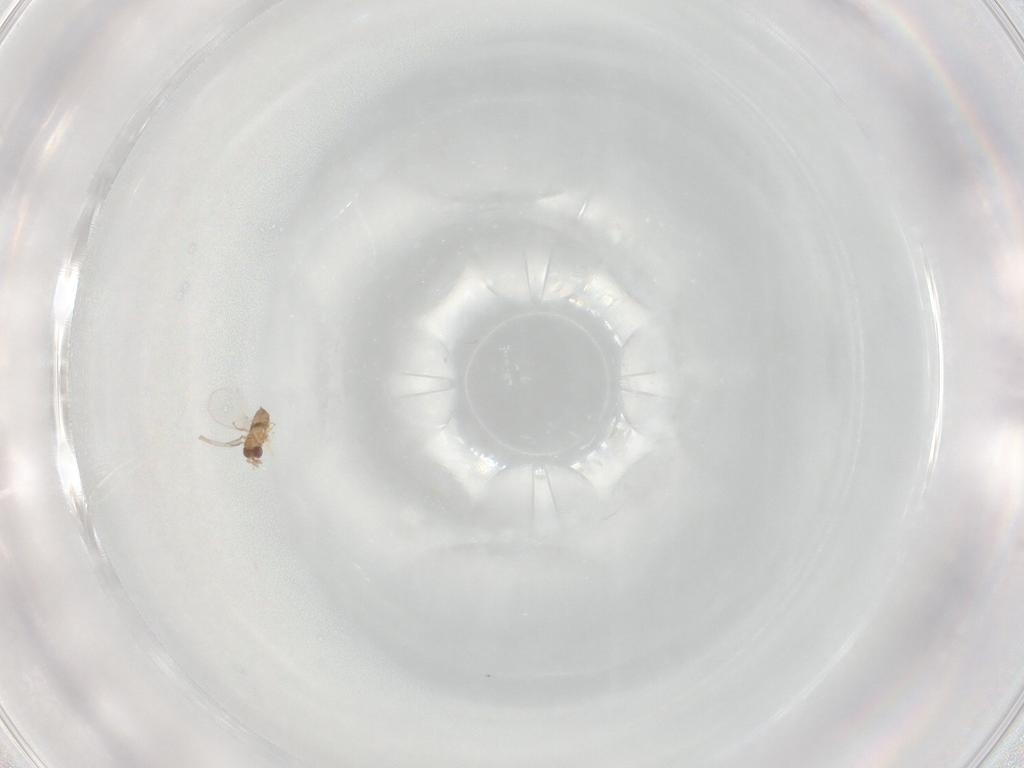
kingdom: Animalia
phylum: Arthropoda
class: Insecta
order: Hymenoptera
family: Trichogrammatidae
